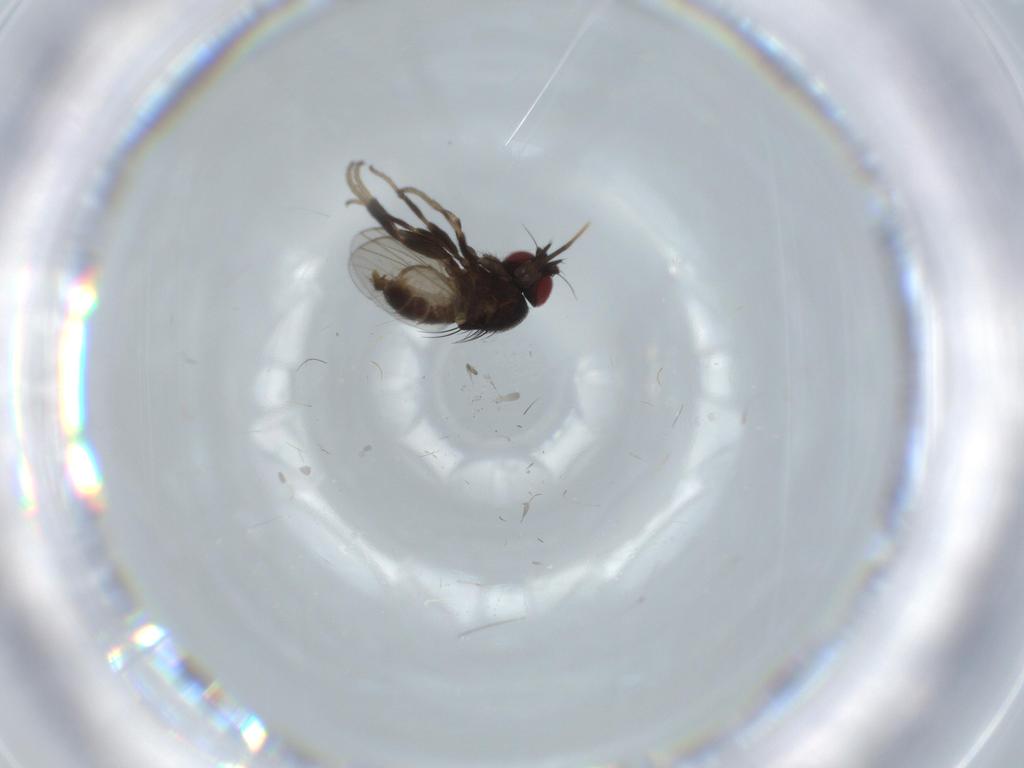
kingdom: Animalia
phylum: Arthropoda
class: Insecta
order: Diptera
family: Milichiidae
